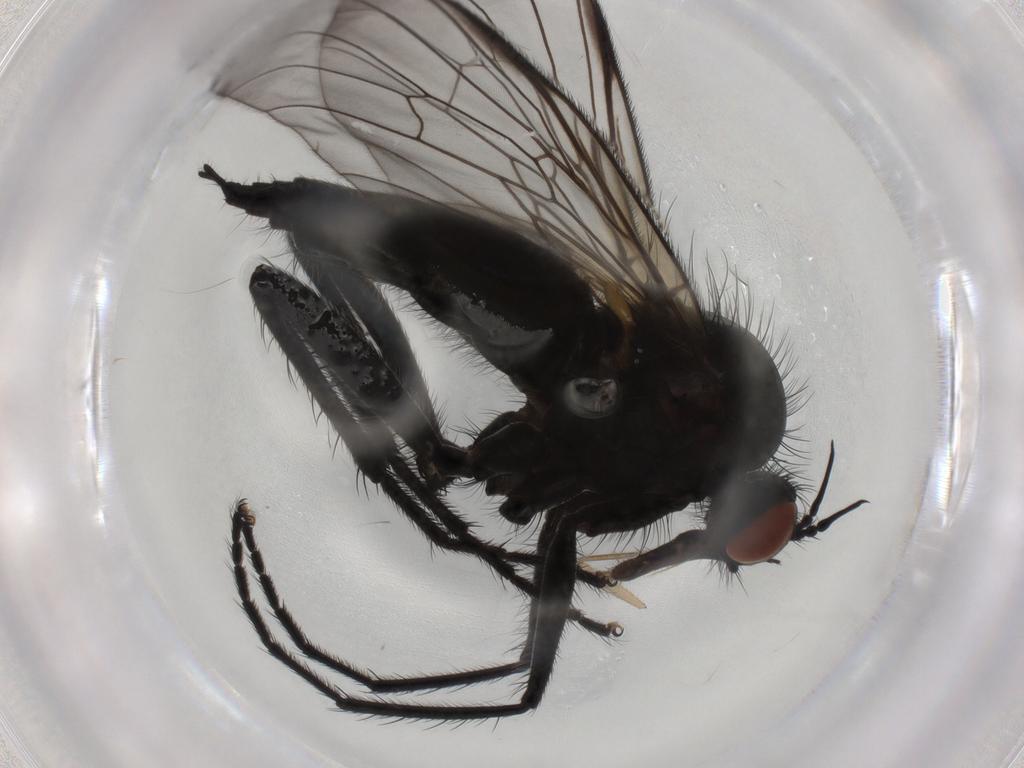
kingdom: Animalia
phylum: Arthropoda
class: Insecta
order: Diptera
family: Empididae
